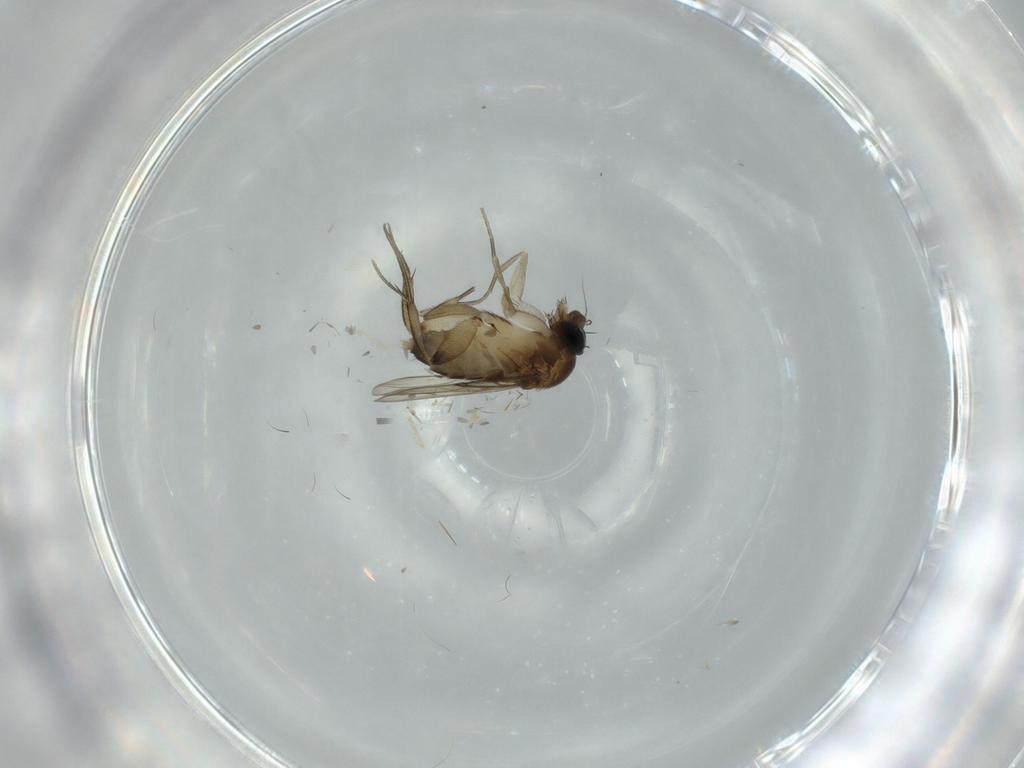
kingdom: Animalia
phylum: Arthropoda
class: Insecta
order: Diptera
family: Phoridae
